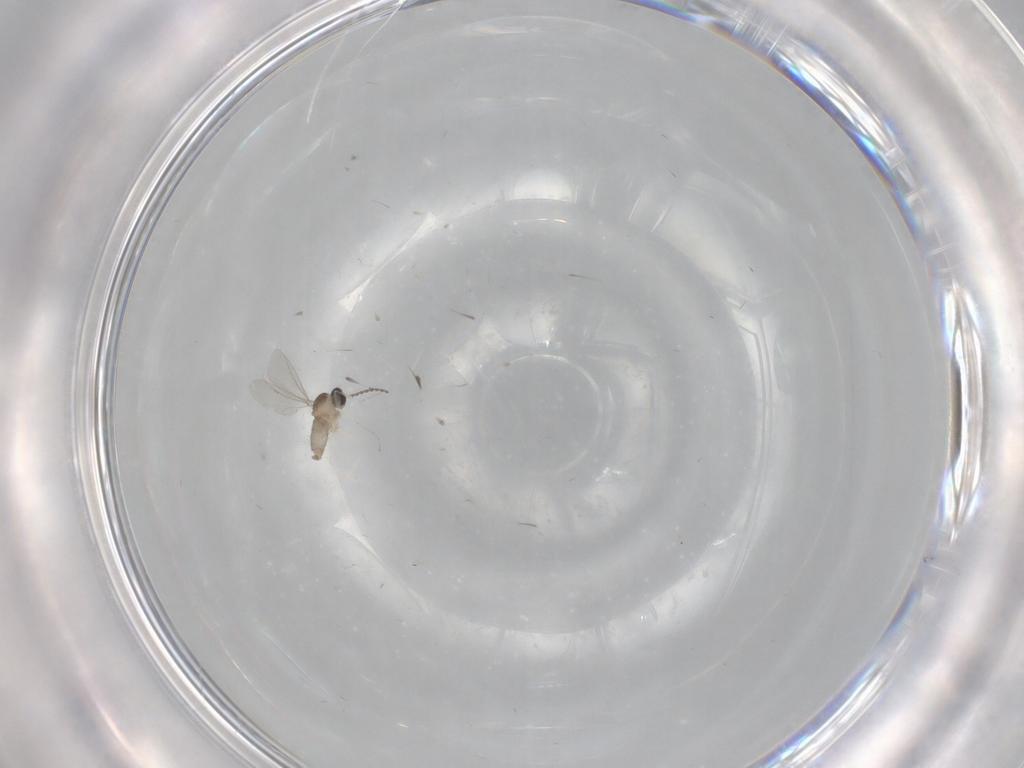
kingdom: Animalia
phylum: Arthropoda
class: Insecta
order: Diptera
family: Cecidomyiidae
